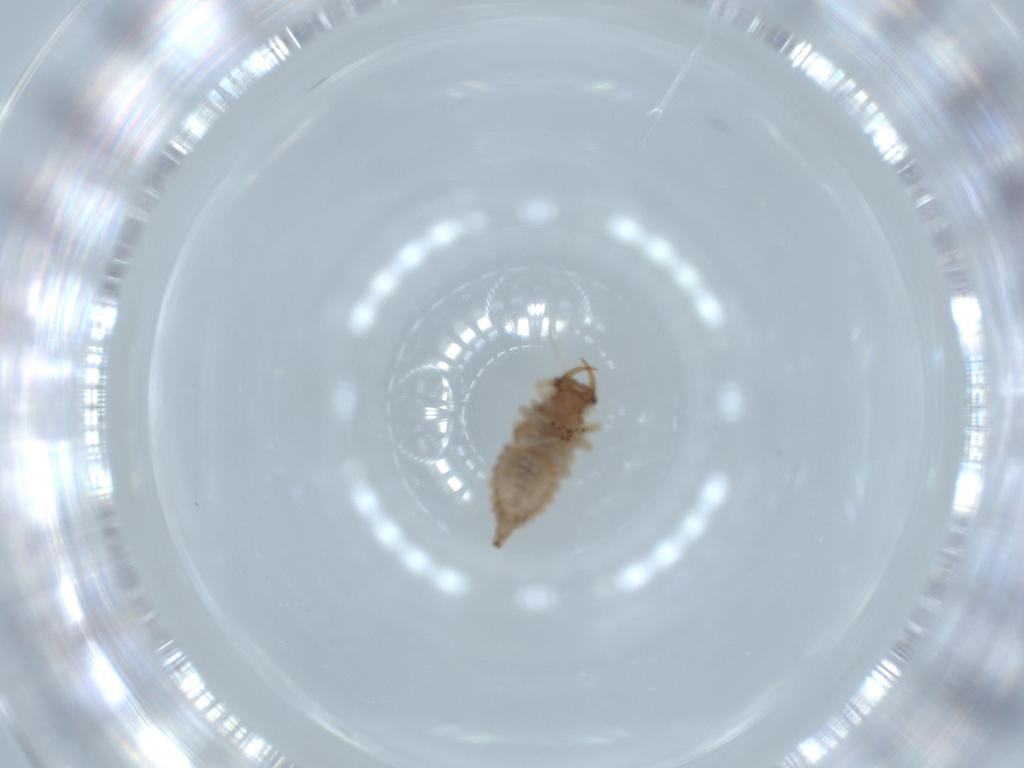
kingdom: Animalia
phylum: Arthropoda
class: Insecta
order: Neuroptera
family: Chrysopidae
